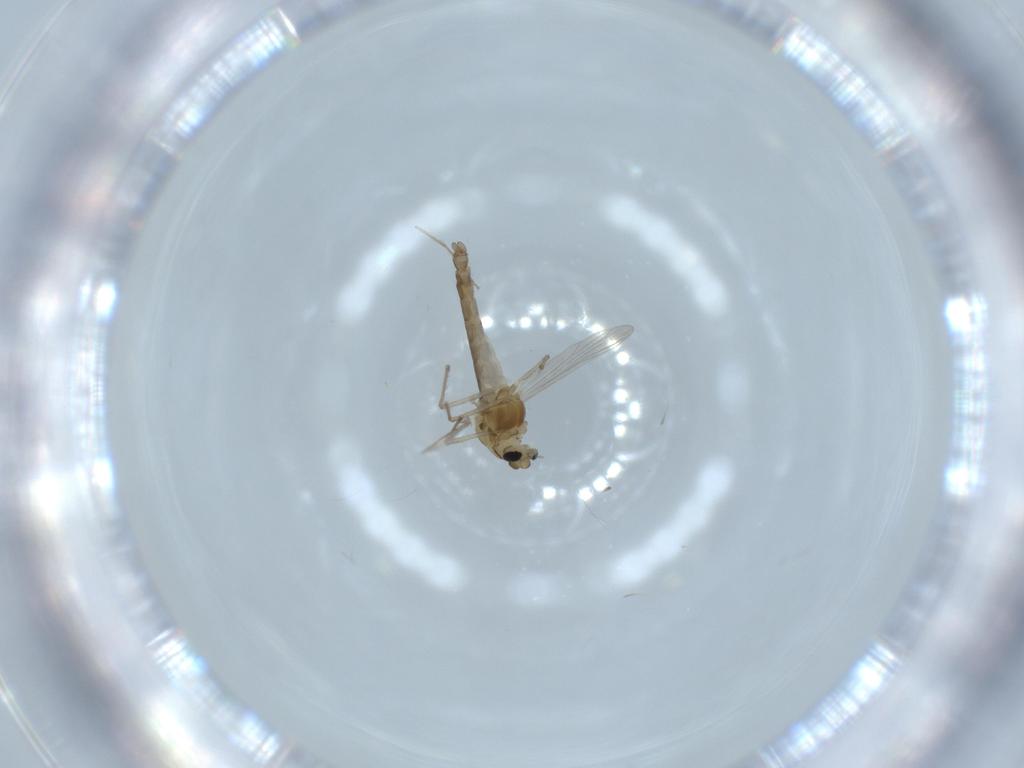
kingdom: Animalia
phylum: Arthropoda
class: Insecta
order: Diptera
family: Chironomidae
